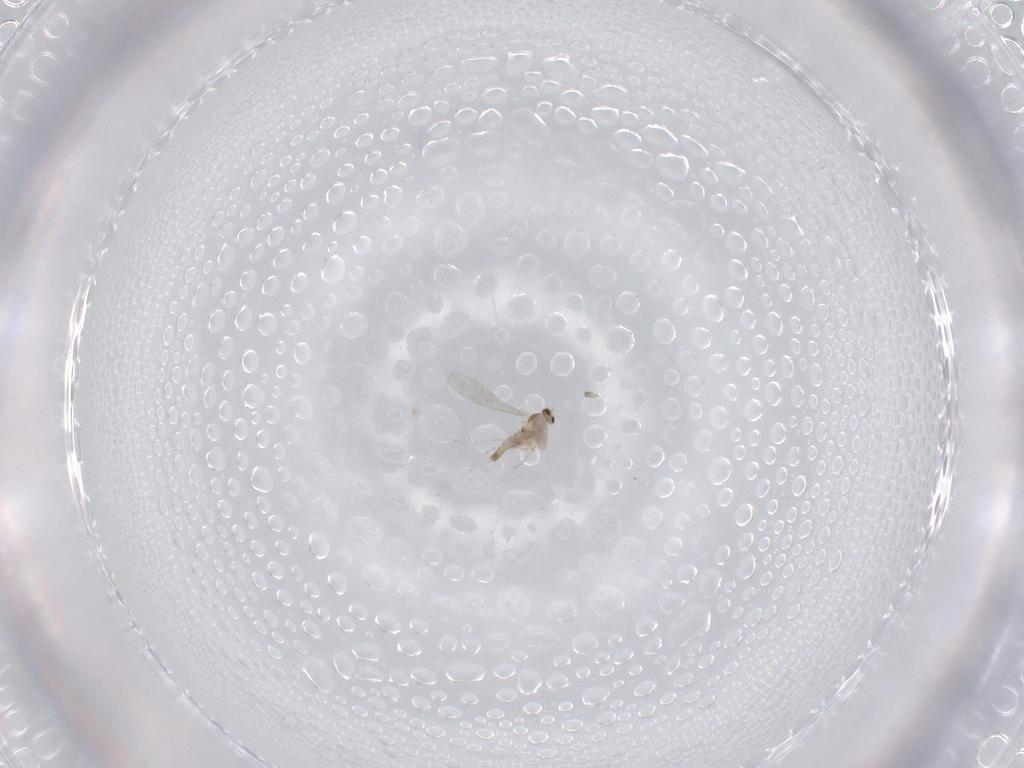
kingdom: Animalia
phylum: Arthropoda
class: Insecta
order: Diptera
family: Cecidomyiidae
